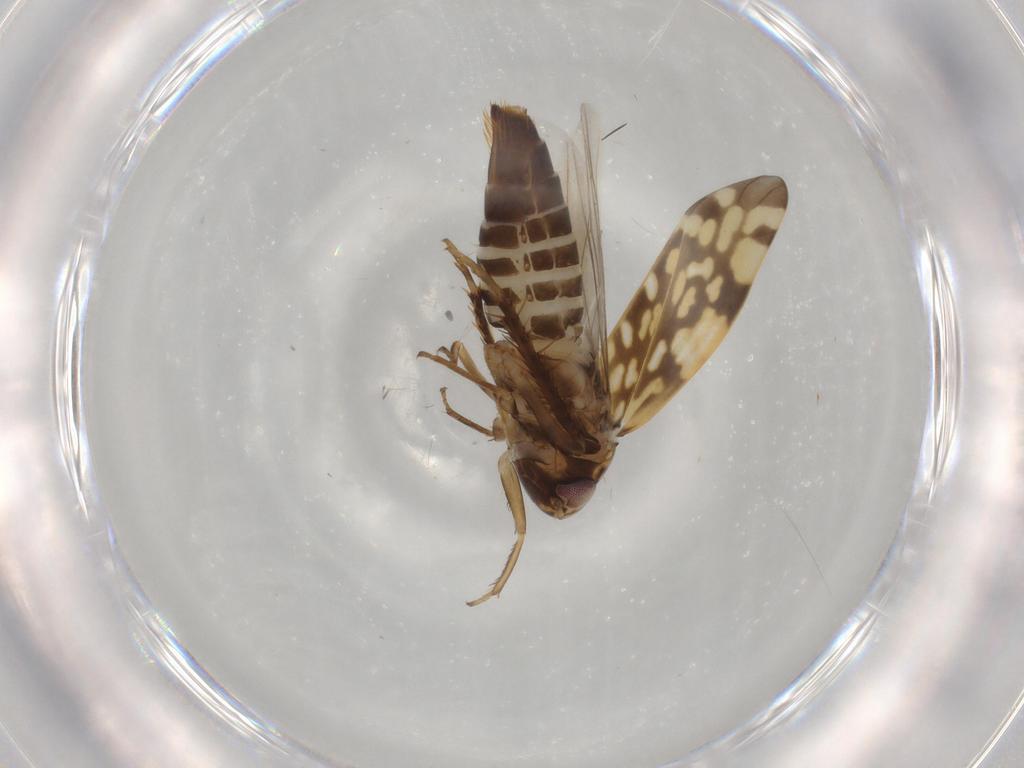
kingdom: Animalia
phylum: Arthropoda
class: Insecta
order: Hemiptera
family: Cicadellidae
